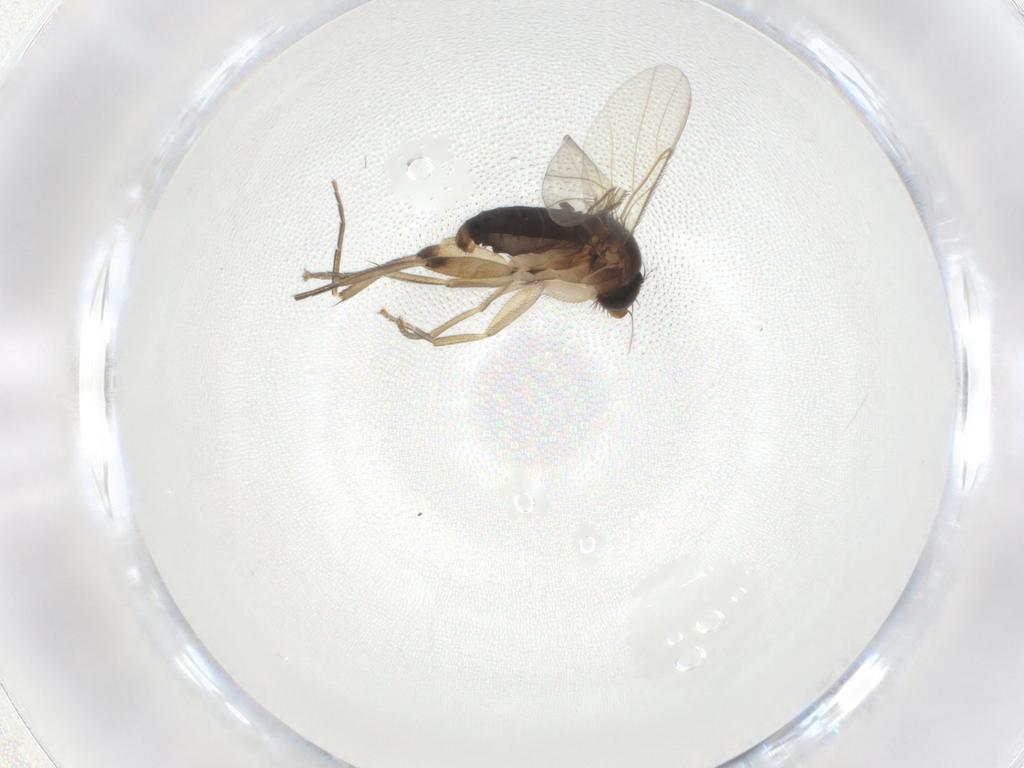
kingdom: Animalia
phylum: Arthropoda
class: Insecta
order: Diptera
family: Phoridae
